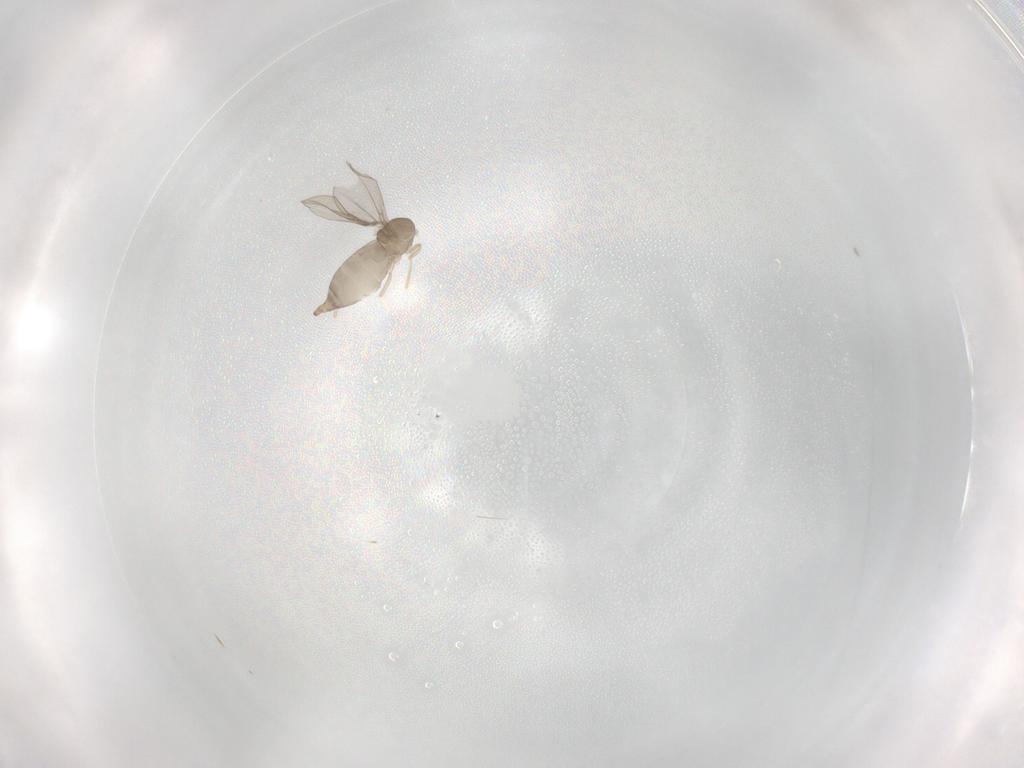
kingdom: Animalia
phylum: Arthropoda
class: Insecta
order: Diptera
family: Cecidomyiidae
